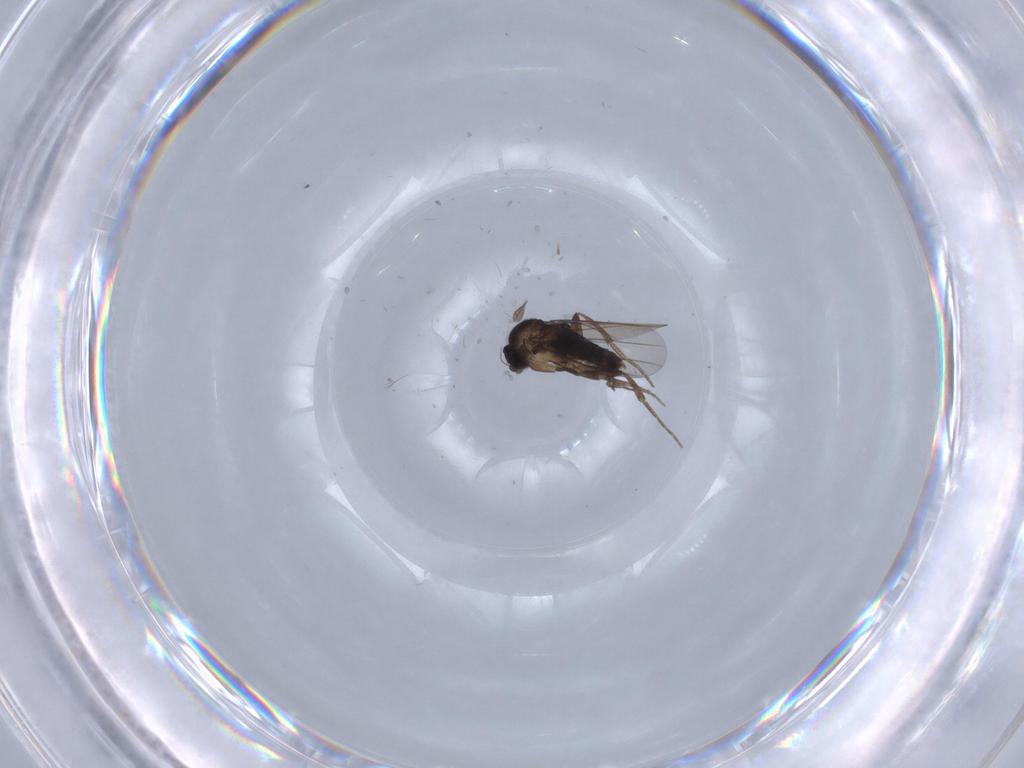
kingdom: Animalia
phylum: Arthropoda
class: Insecta
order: Diptera
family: Phoridae
